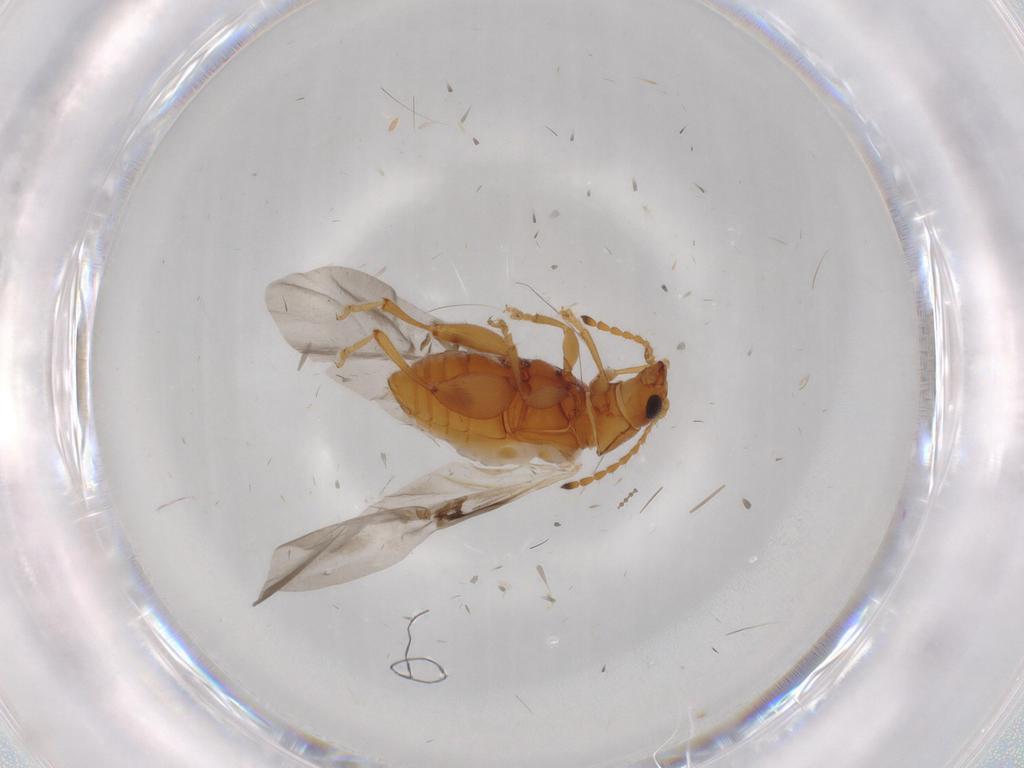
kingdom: Animalia
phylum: Arthropoda
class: Insecta
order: Coleoptera
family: Chrysomelidae
